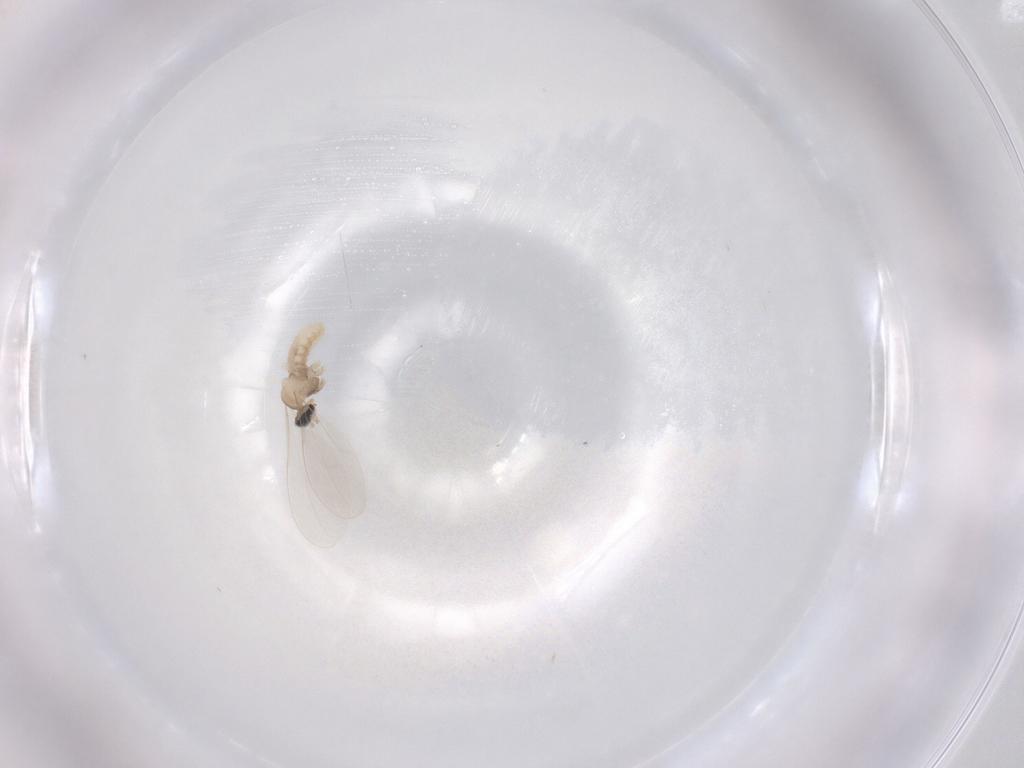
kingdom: Animalia
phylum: Arthropoda
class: Insecta
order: Diptera
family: Cecidomyiidae
